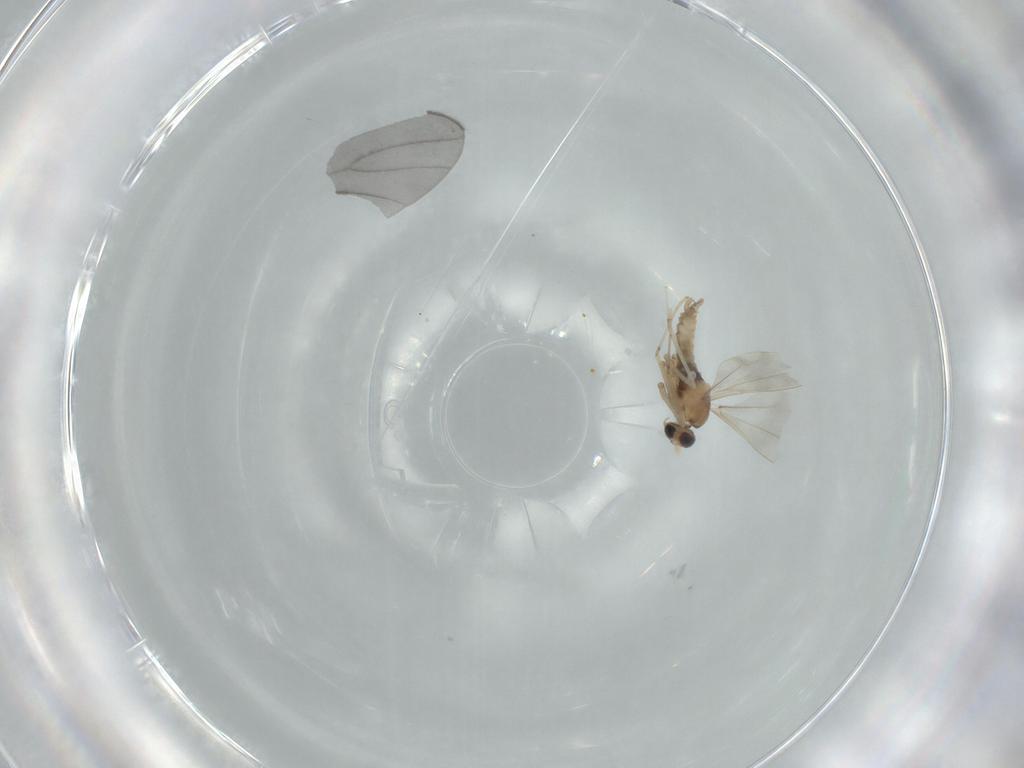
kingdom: Animalia
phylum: Arthropoda
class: Insecta
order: Diptera
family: Cecidomyiidae
